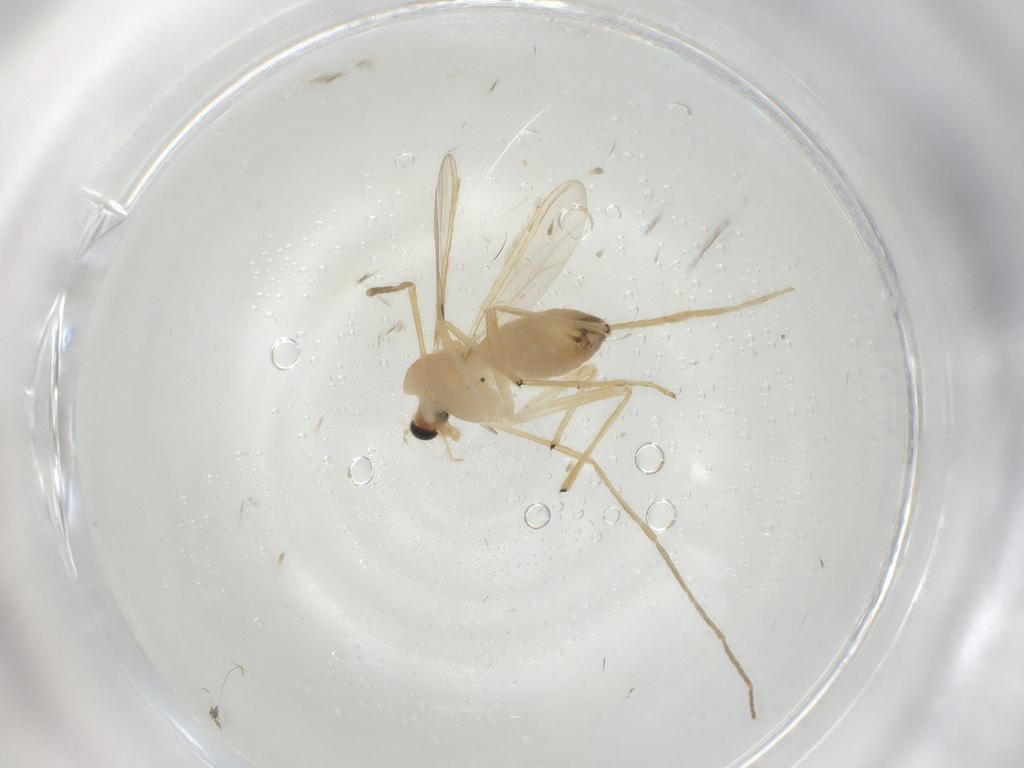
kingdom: Animalia
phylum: Arthropoda
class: Insecta
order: Diptera
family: Chironomidae
